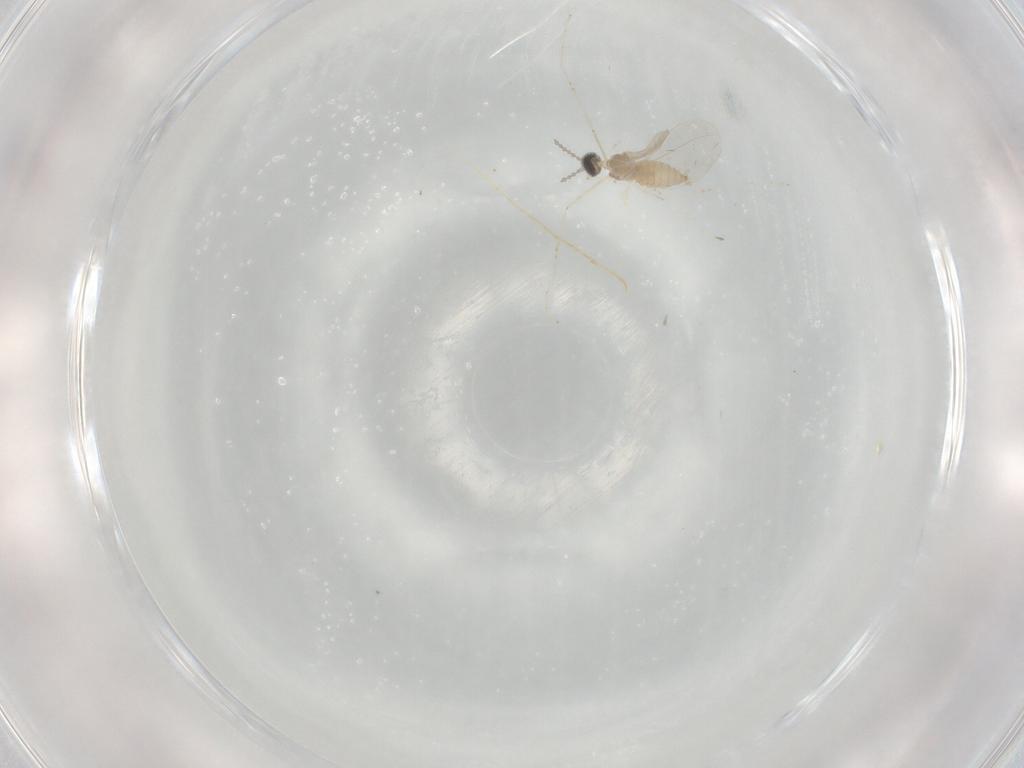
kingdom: Animalia
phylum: Arthropoda
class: Insecta
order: Diptera
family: Cecidomyiidae
